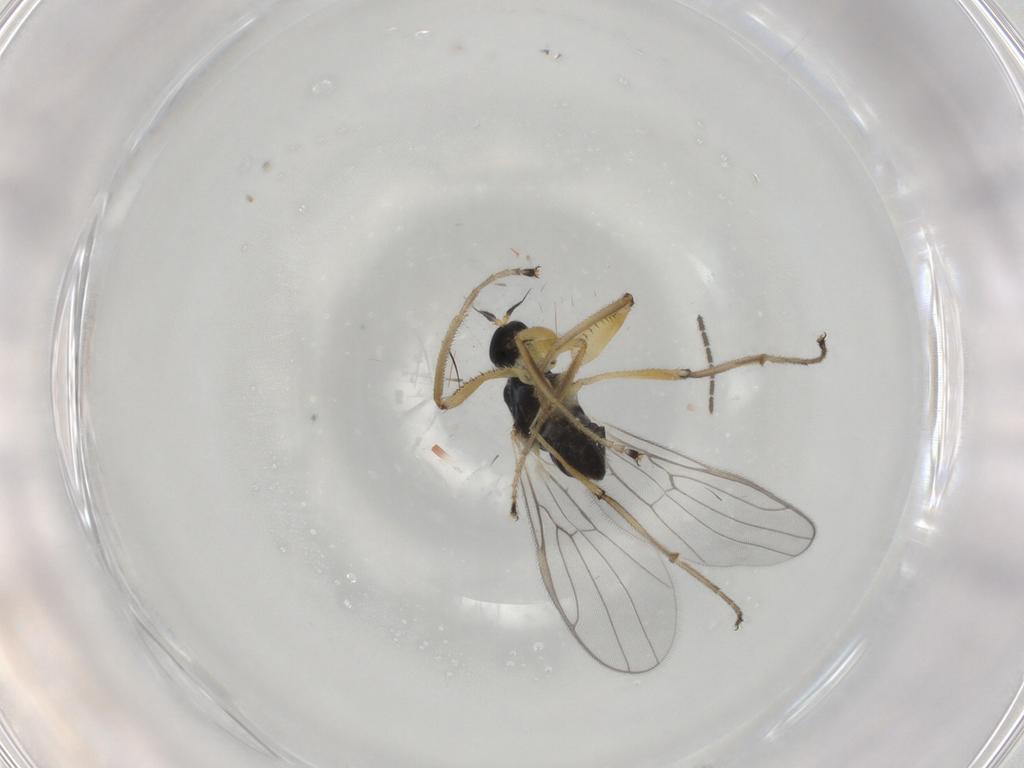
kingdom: Animalia
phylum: Arthropoda
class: Insecta
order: Diptera
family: Hybotidae
